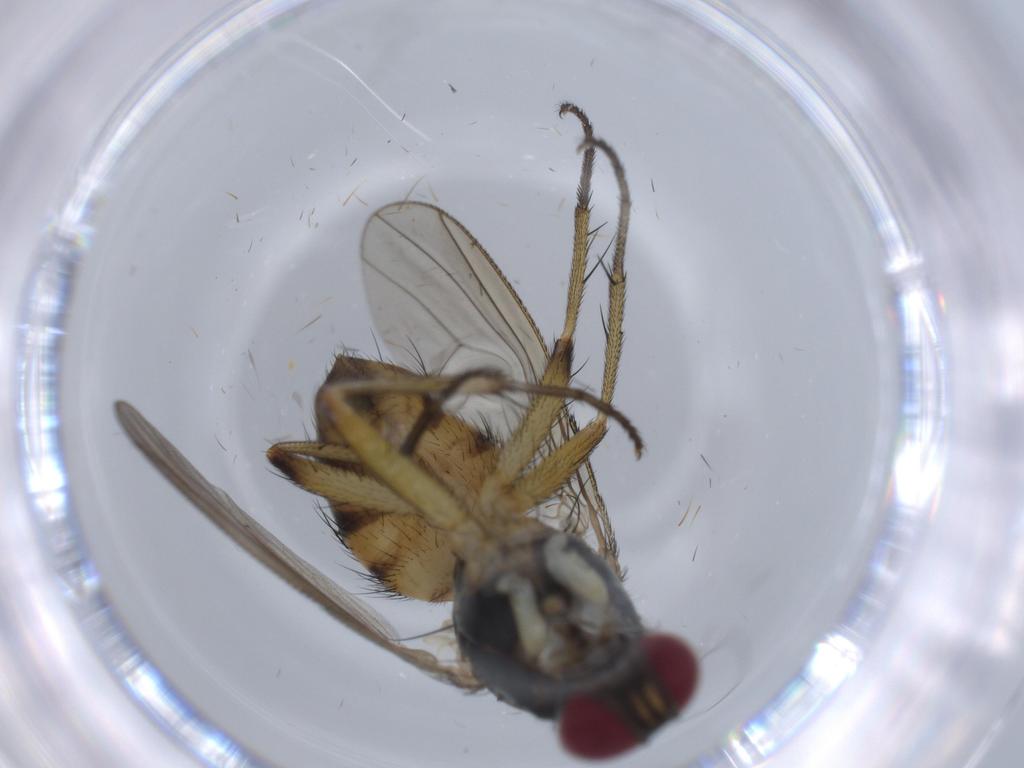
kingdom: Animalia
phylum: Arthropoda
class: Insecta
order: Diptera
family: Muscidae
